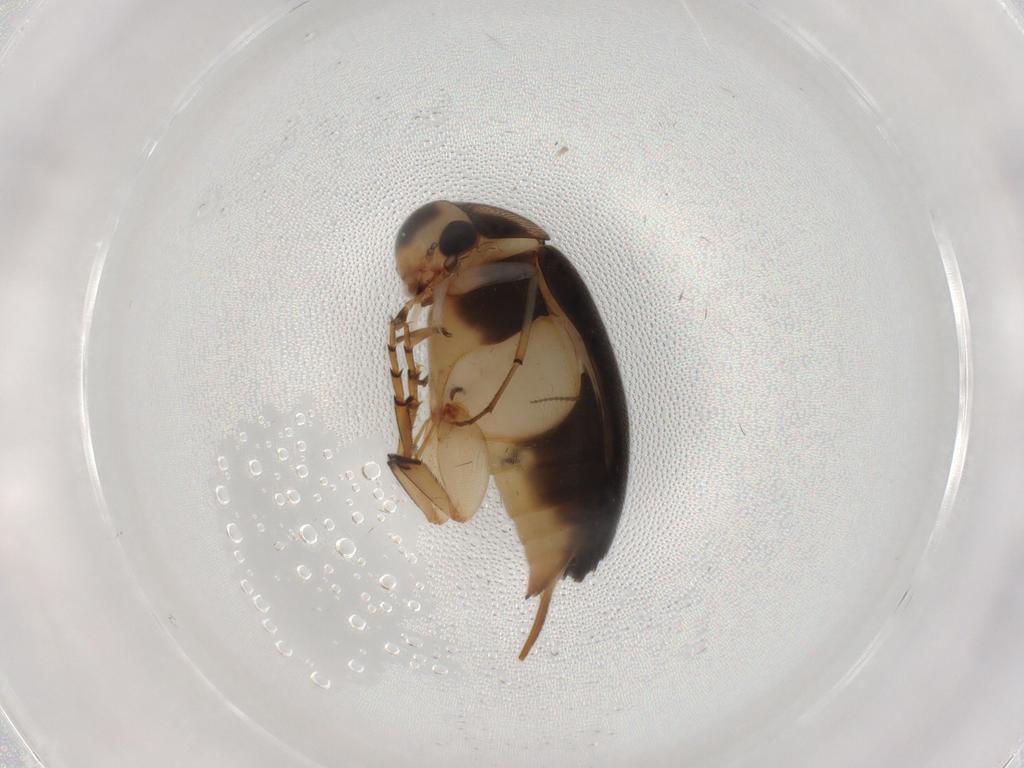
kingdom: Animalia
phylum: Arthropoda
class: Insecta
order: Coleoptera
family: Mordellidae
